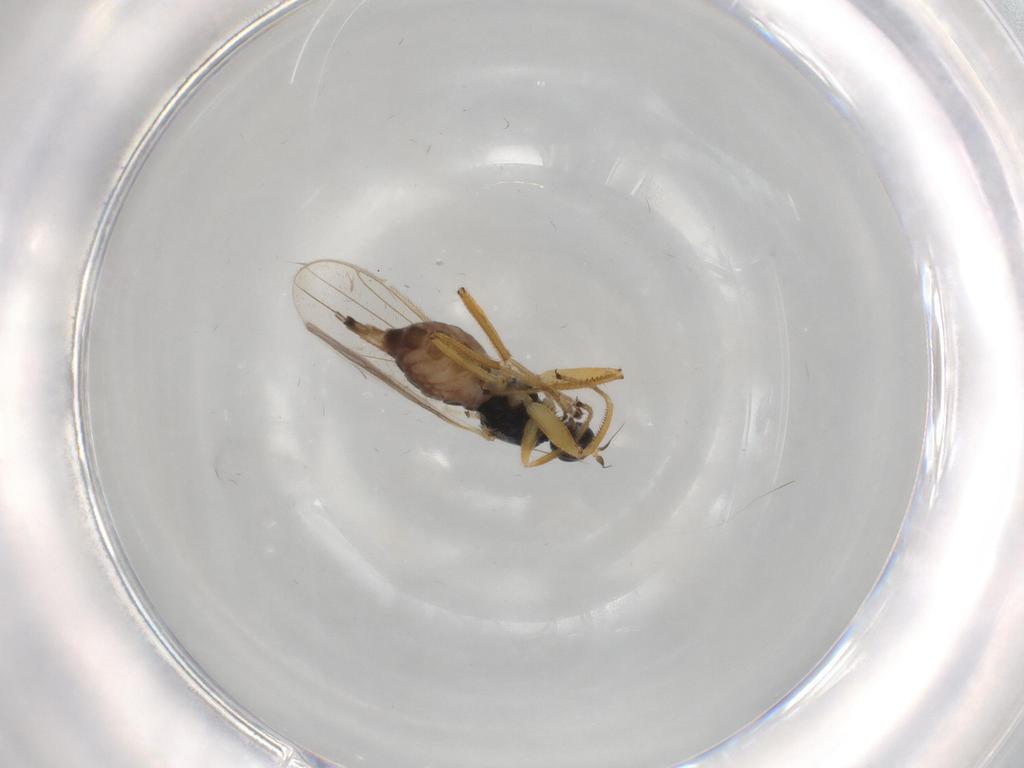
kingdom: Animalia
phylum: Arthropoda
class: Insecta
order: Diptera
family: Hybotidae
